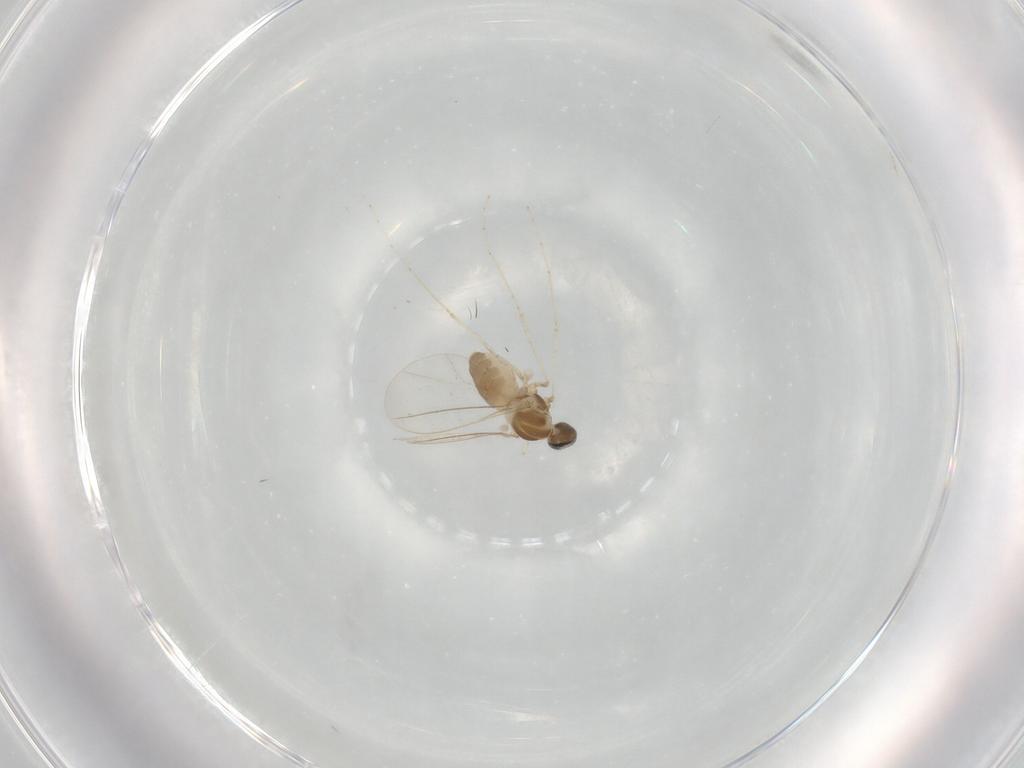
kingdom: Animalia
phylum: Arthropoda
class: Insecta
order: Diptera
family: Cecidomyiidae
